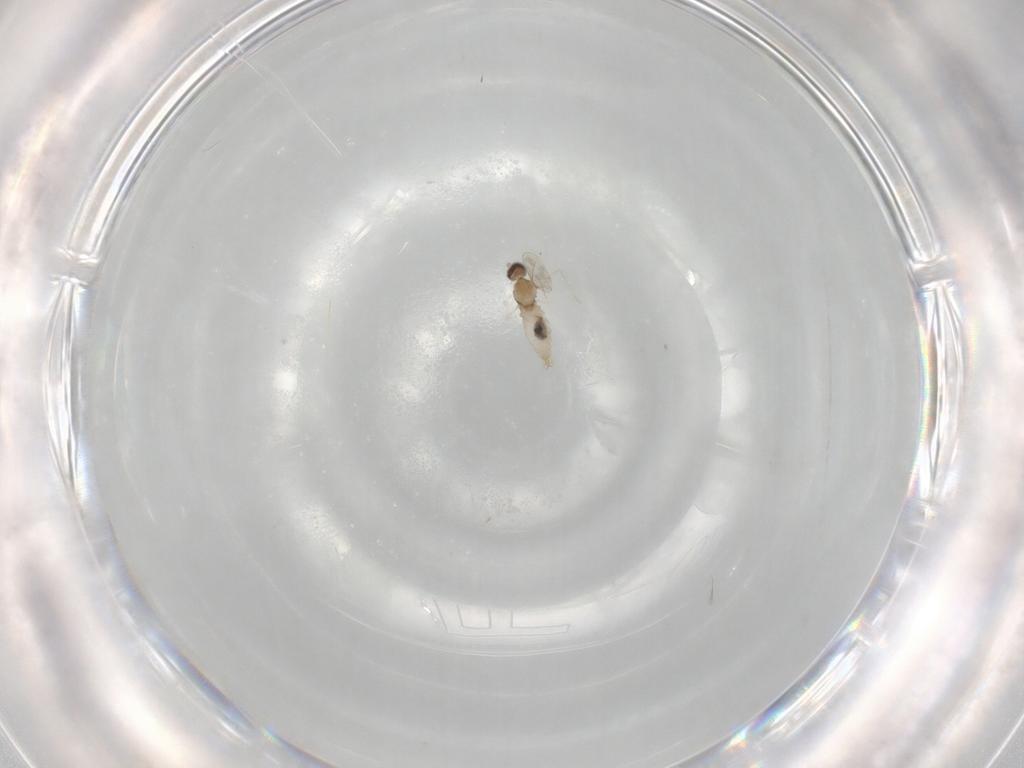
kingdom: Animalia
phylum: Arthropoda
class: Insecta
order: Diptera
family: Cecidomyiidae
